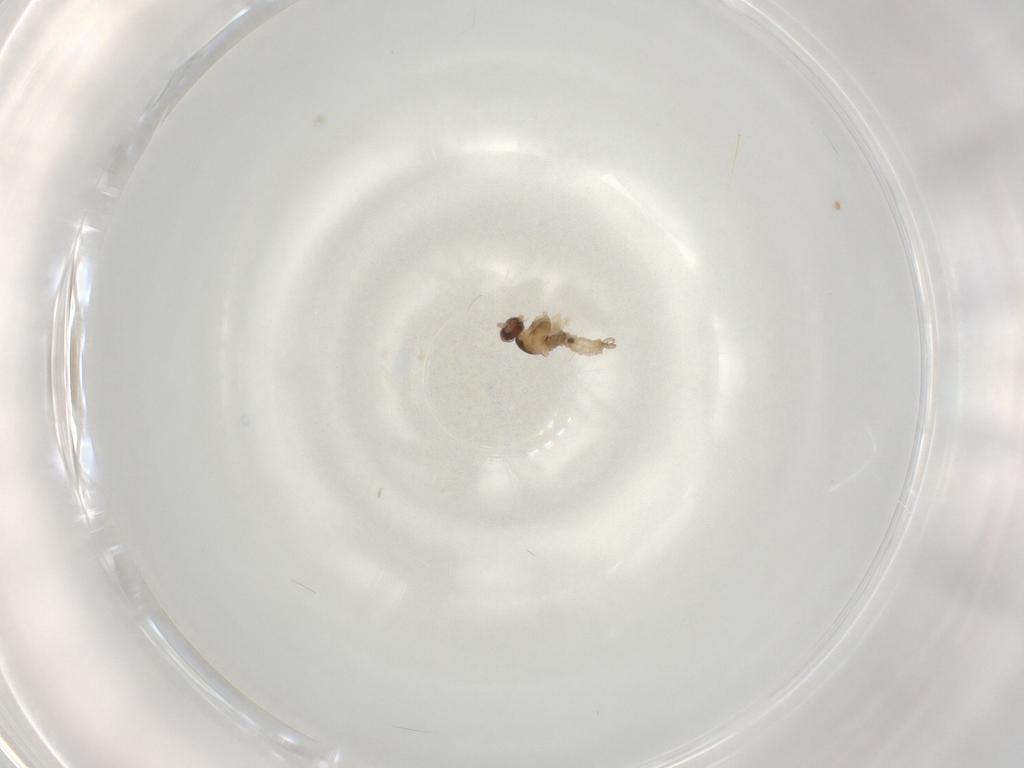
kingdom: Animalia
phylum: Arthropoda
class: Insecta
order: Diptera
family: Cecidomyiidae
